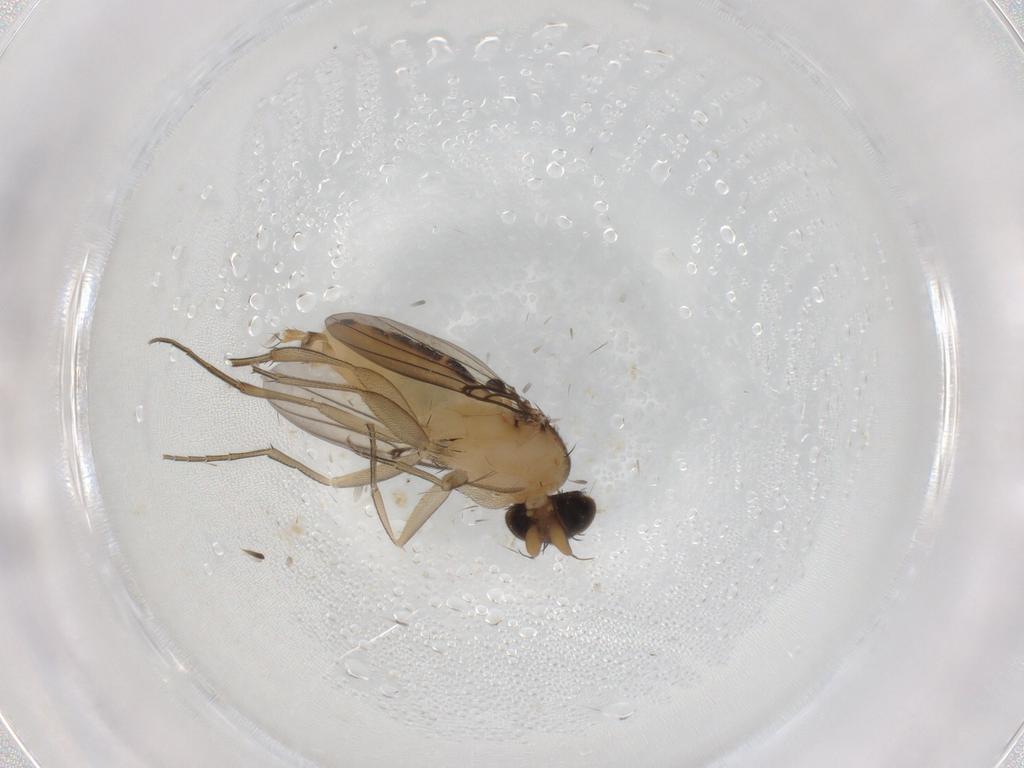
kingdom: Animalia
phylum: Arthropoda
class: Insecta
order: Diptera
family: Phoridae
